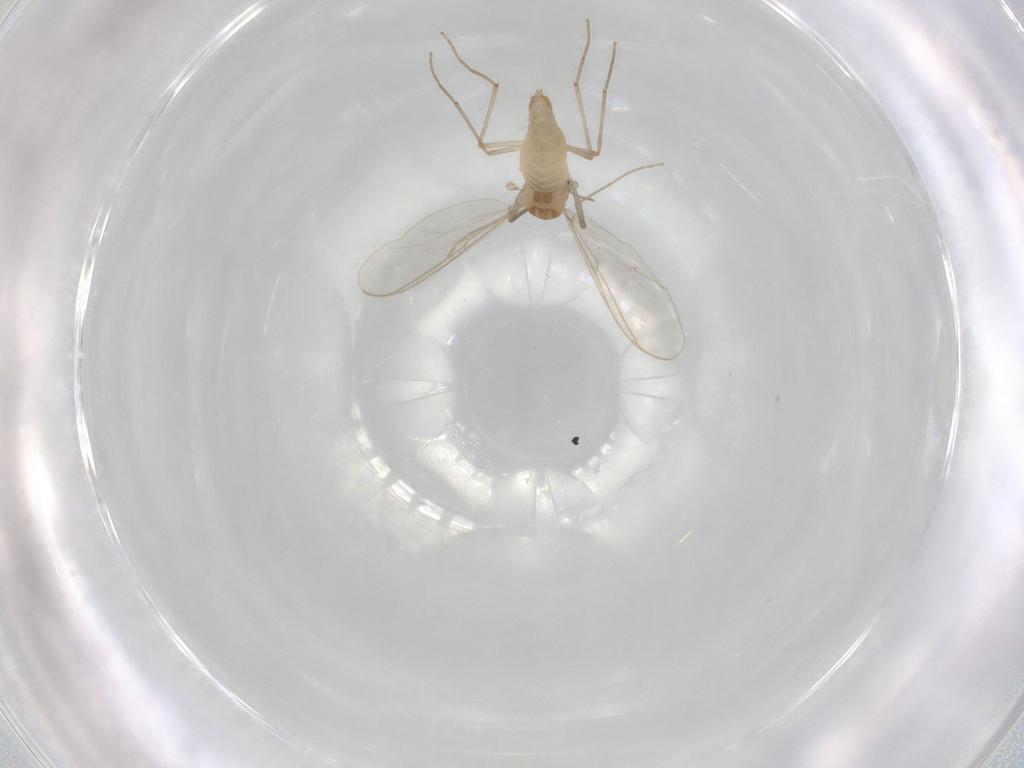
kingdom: Animalia
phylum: Arthropoda
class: Insecta
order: Diptera
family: Chironomidae
